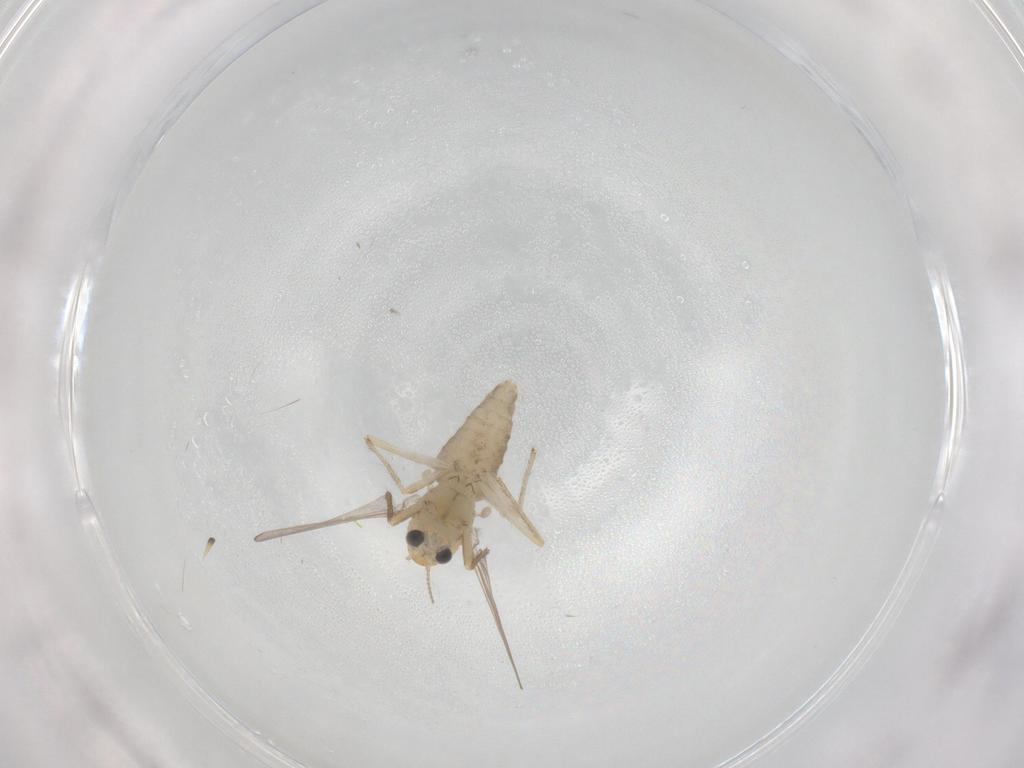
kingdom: Animalia
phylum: Arthropoda
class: Insecta
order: Diptera
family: Chironomidae
